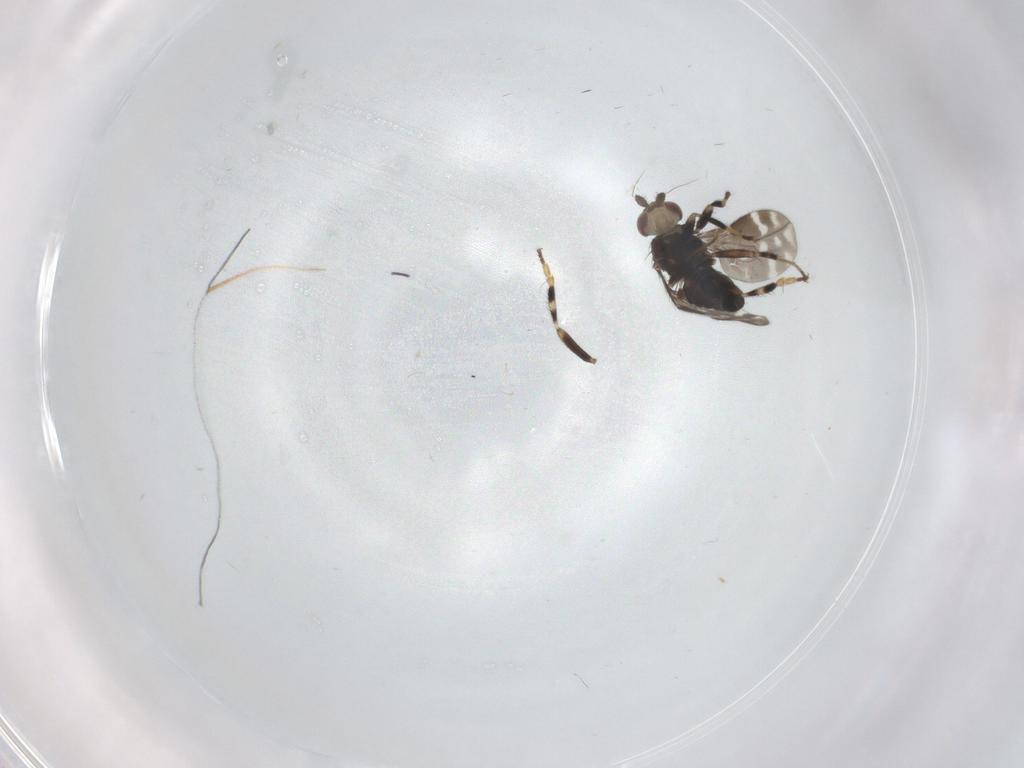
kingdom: Animalia
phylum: Arthropoda
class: Insecta
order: Diptera
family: Sphaeroceridae
